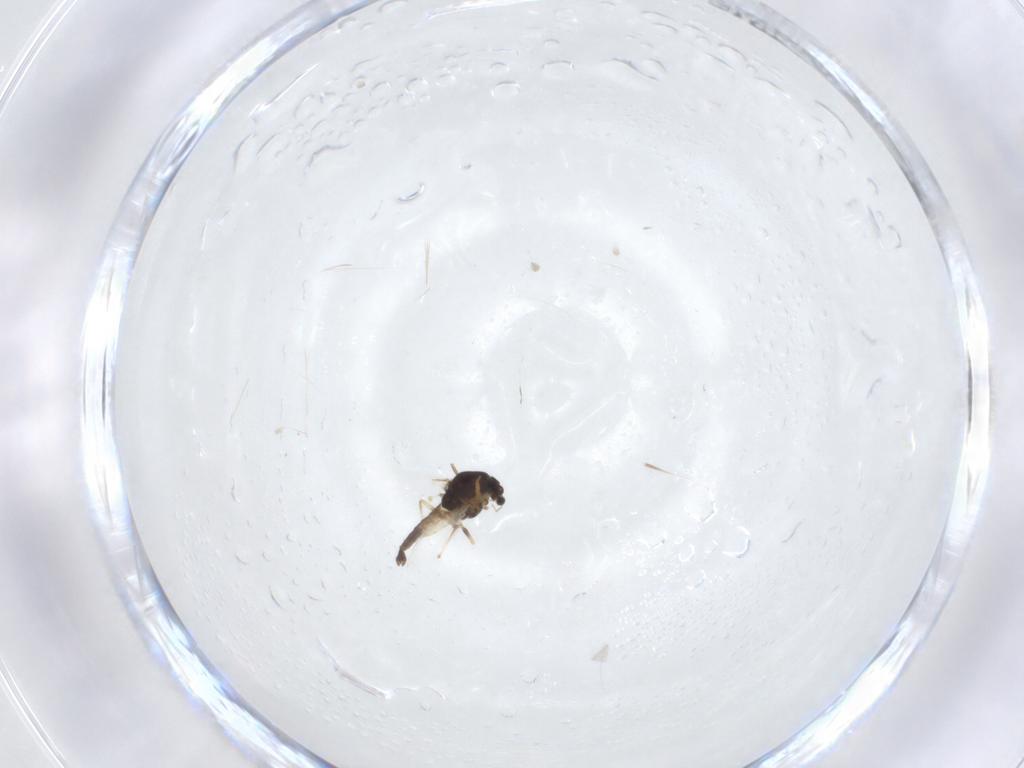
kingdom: Animalia
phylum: Arthropoda
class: Insecta
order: Diptera
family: Chironomidae
